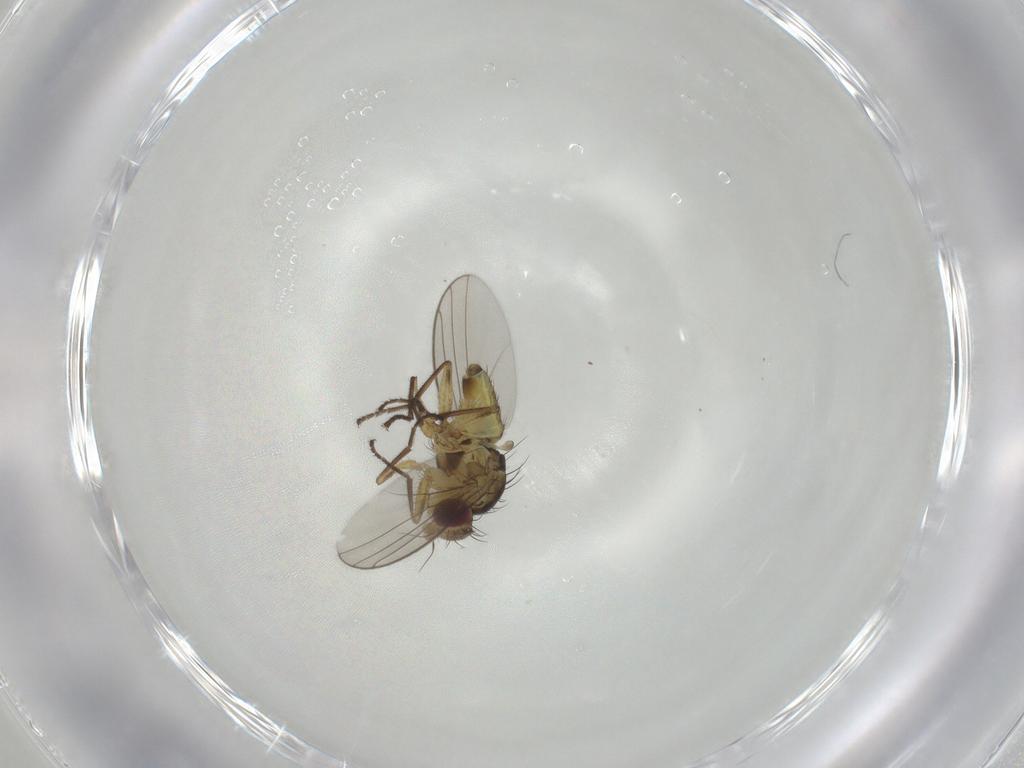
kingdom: Animalia
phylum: Arthropoda
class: Insecta
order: Diptera
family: Agromyzidae
